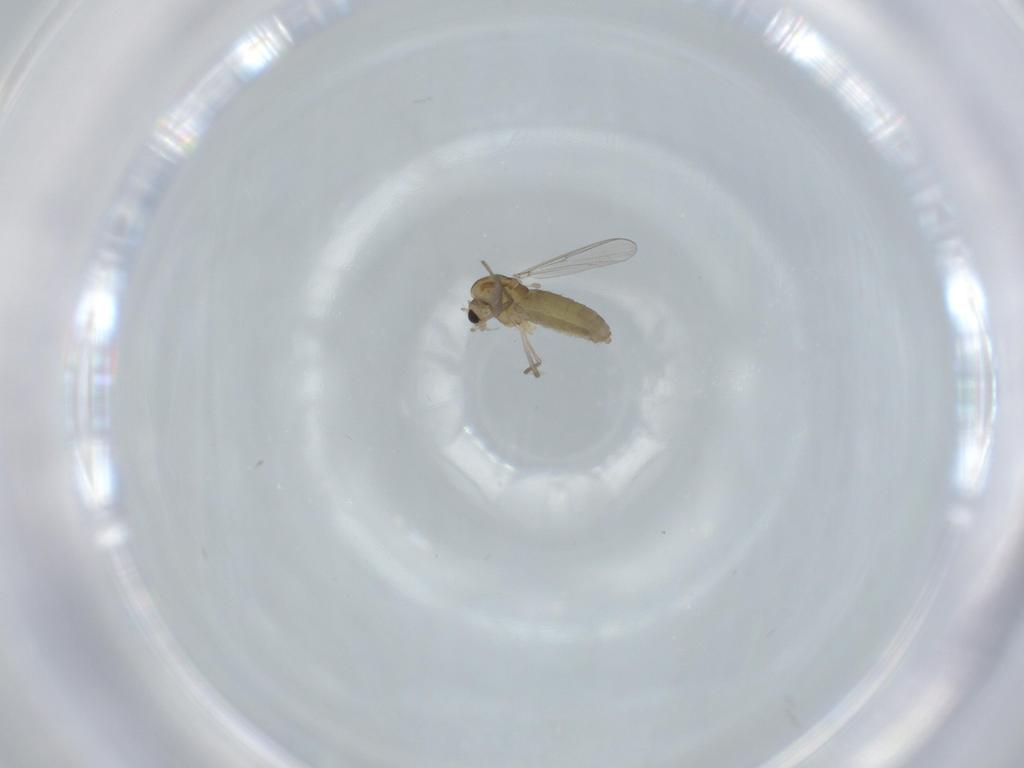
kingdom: Animalia
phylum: Arthropoda
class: Insecta
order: Diptera
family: Chironomidae
